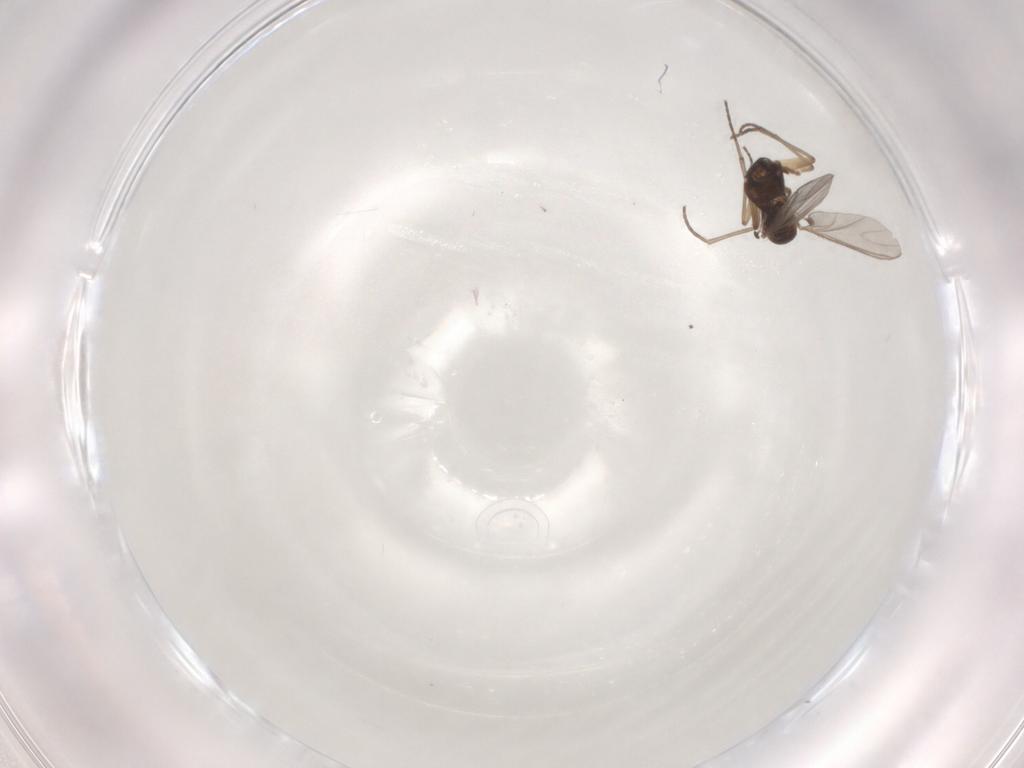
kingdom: Animalia
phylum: Arthropoda
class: Insecta
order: Diptera
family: Sciaridae
